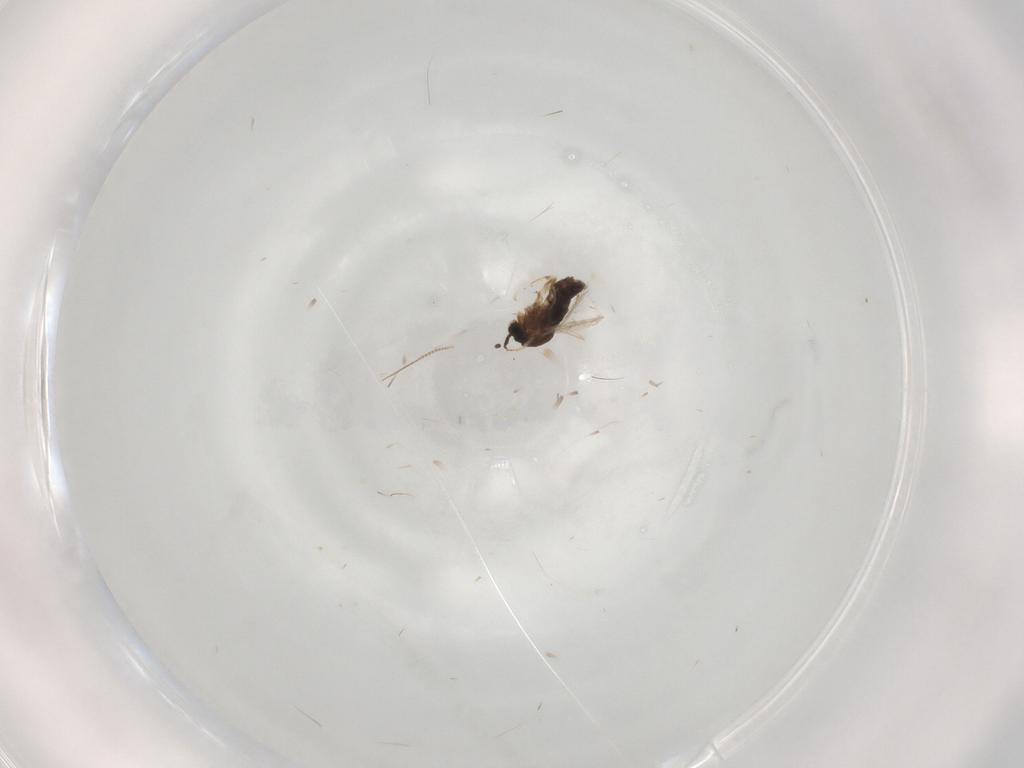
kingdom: Animalia
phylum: Arthropoda
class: Insecta
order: Diptera
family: Scatopsidae
